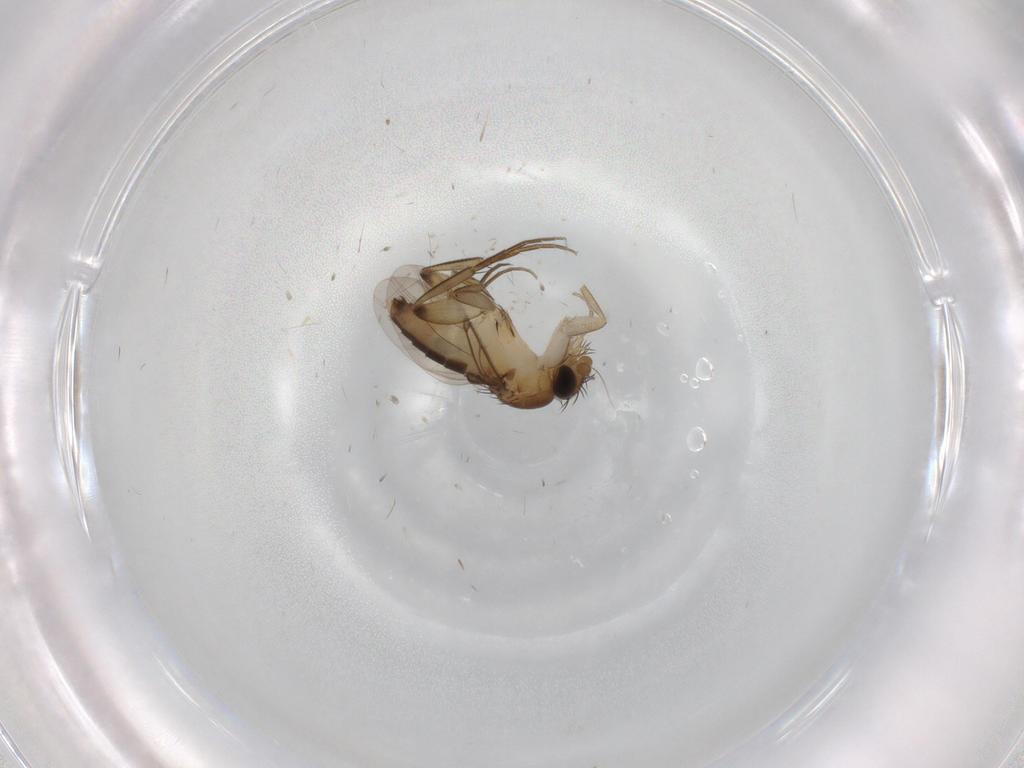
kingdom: Animalia
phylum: Arthropoda
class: Insecta
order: Diptera
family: Phoridae
